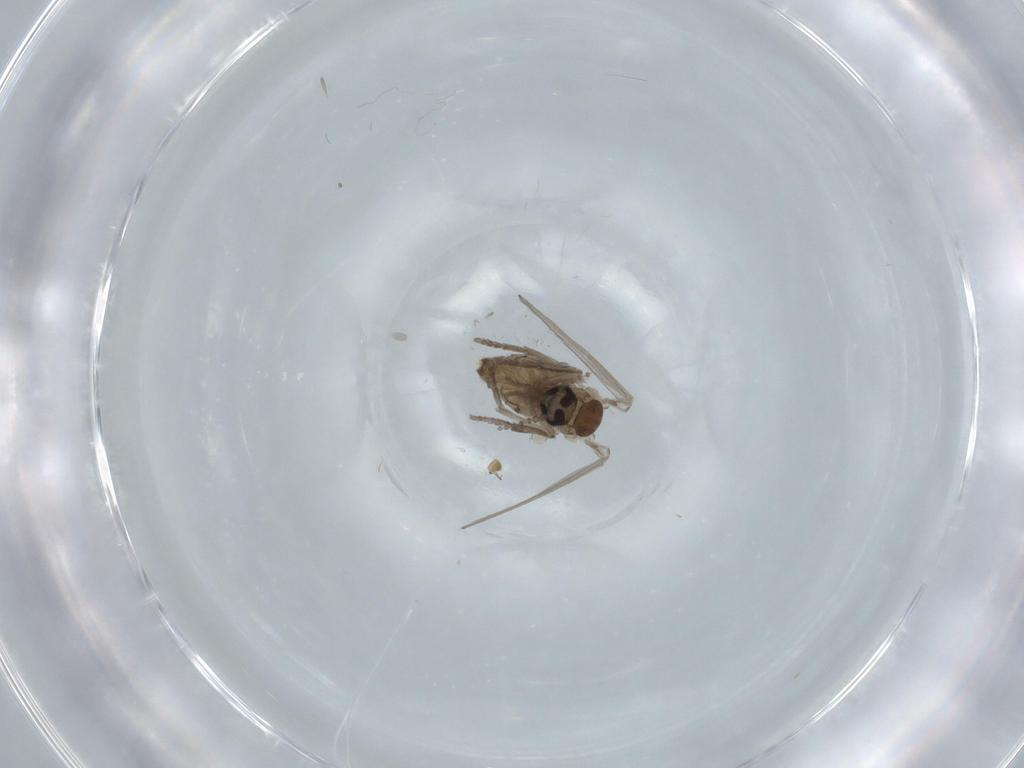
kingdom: Animalia
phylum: Arthropoda
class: Insecta
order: Diptera
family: Psychodidae
